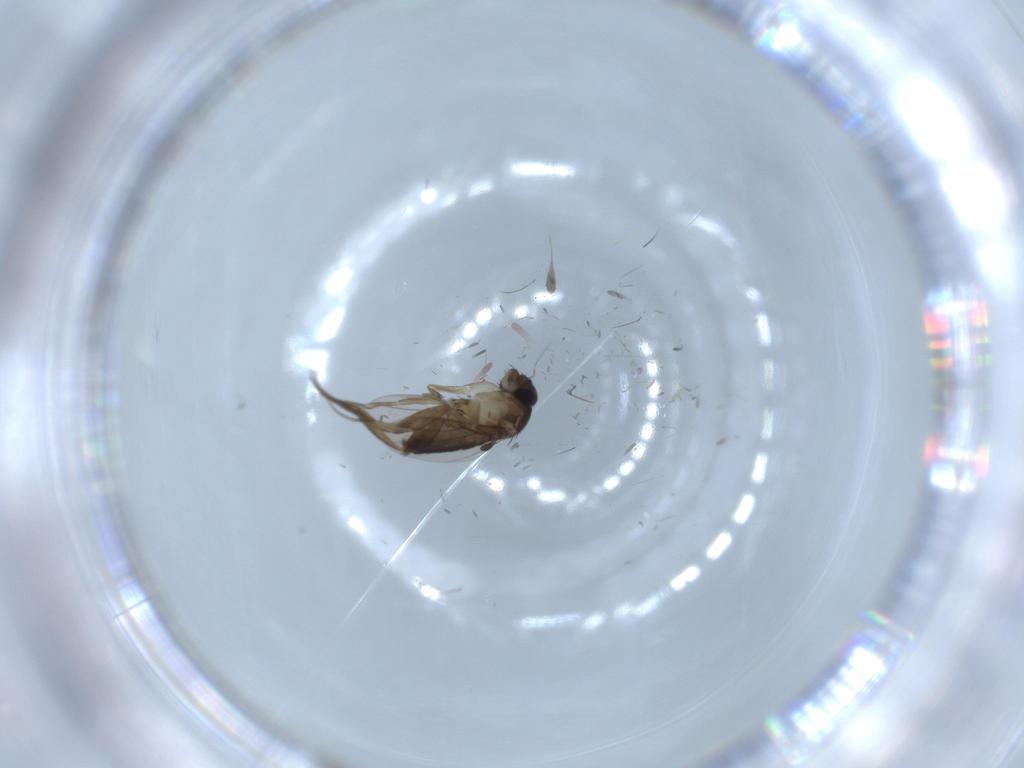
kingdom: Animalia
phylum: Arthropoda
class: Insecta
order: Diptera
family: Phoridae
